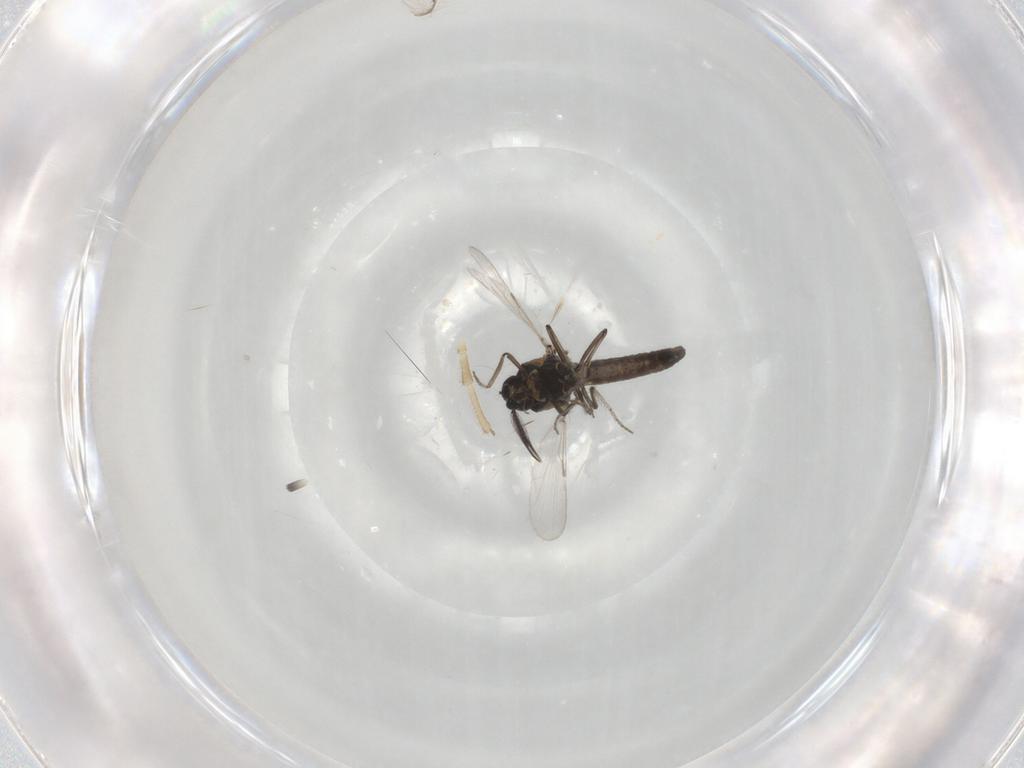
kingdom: Animalia
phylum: Arthropoda
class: Insecta
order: Diptera
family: Ceratopogonidae
